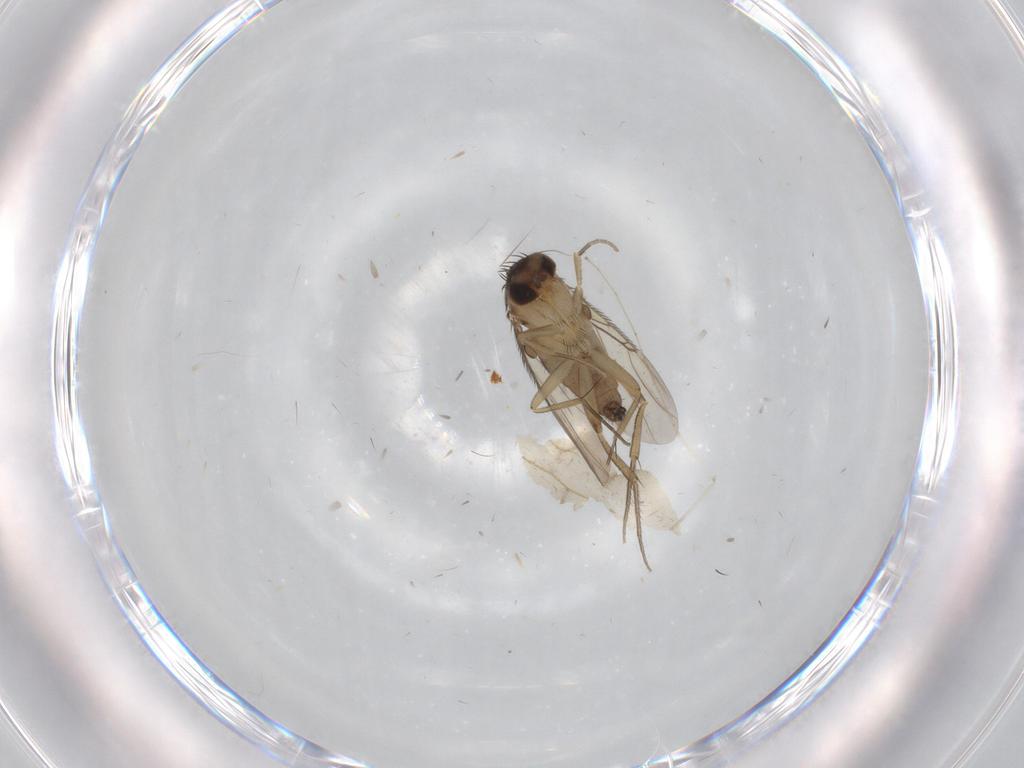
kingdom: Animalia
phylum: Arthropoda
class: Insecta
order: Diptera
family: Phoridae
